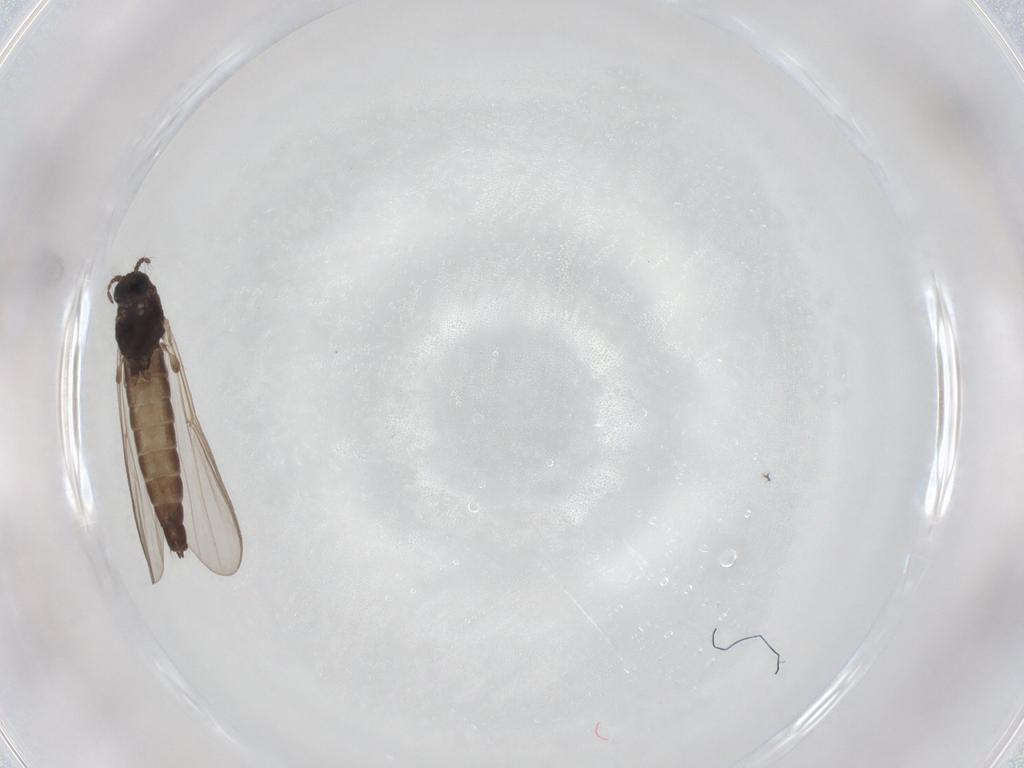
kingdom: Animalia
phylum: Arthropoda
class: Insecta
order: Diptera
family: Chironomidae
